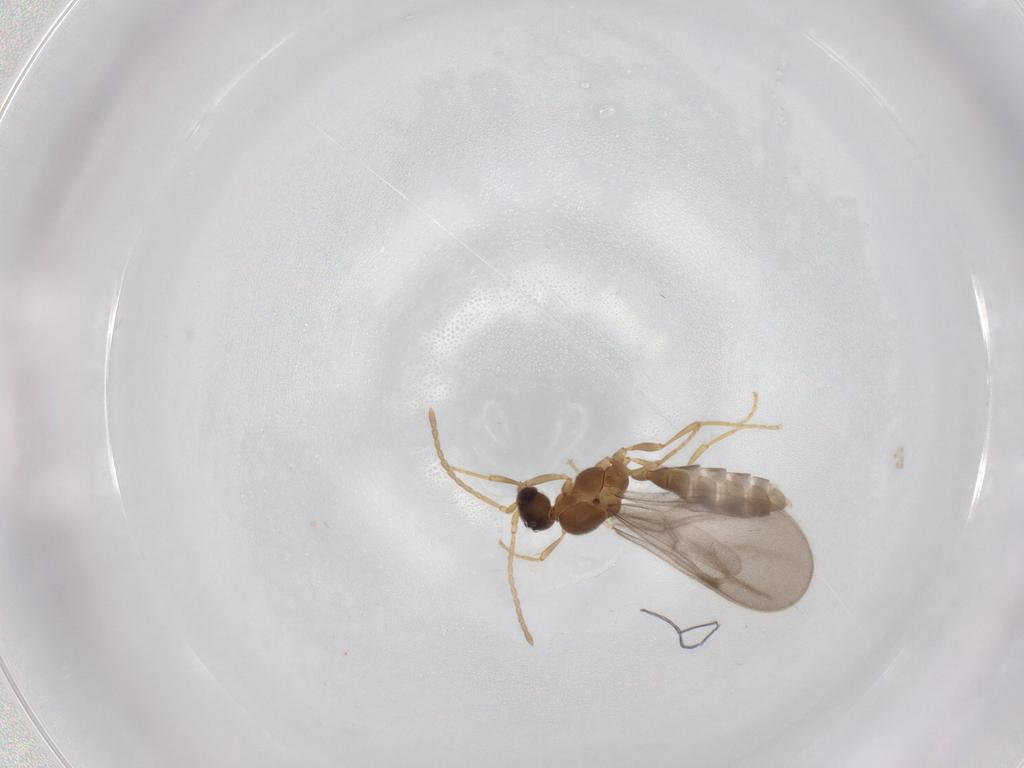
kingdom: Animalia
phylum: Arthropoda
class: Insecta
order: Hymenoptera
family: Formicidae
